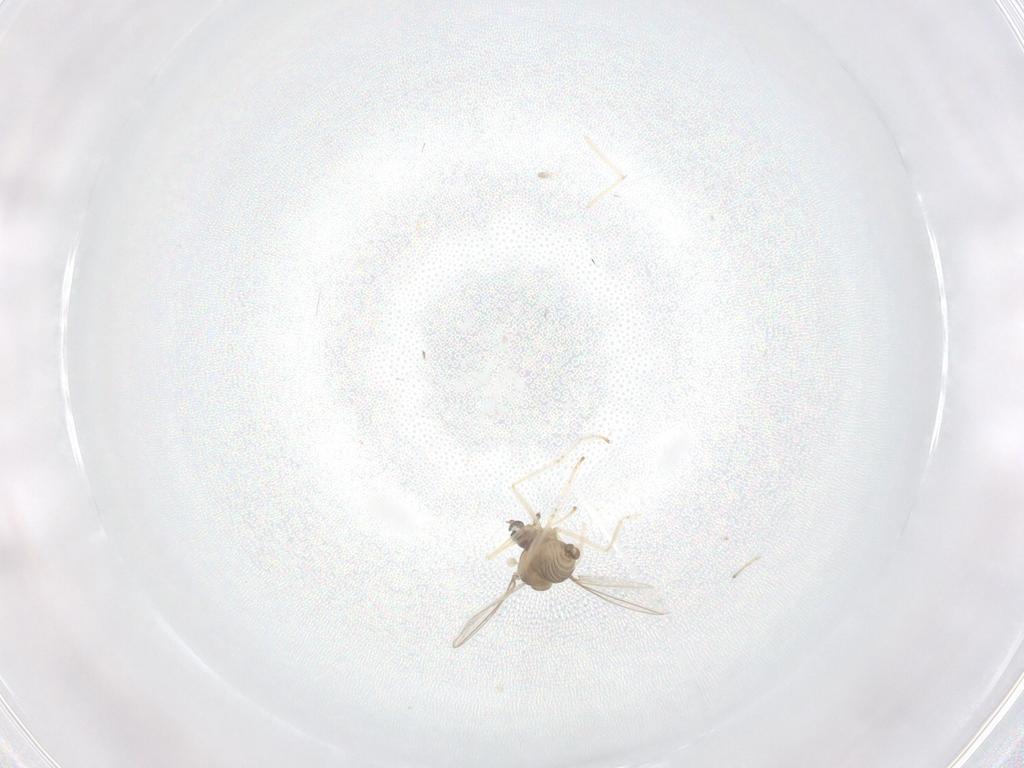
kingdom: Animalia
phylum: Arthropoda
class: Insecta
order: Diptera
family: Cecidomyiidae
